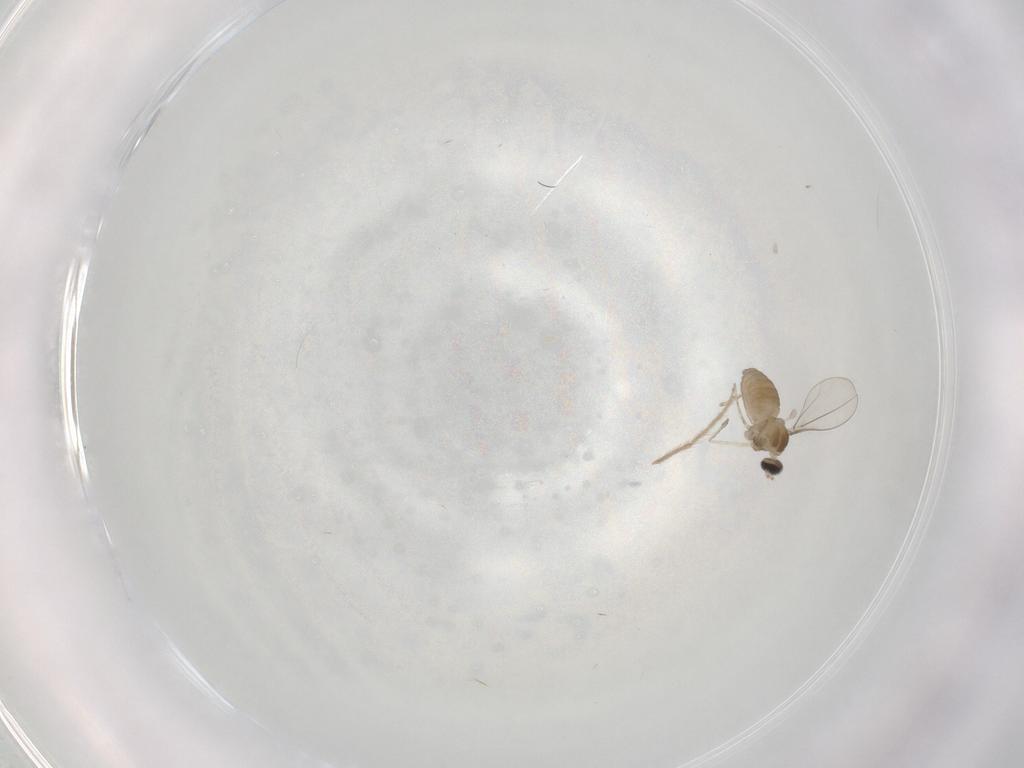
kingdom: Animalia
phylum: Arthropoda
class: Insecta
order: Diptera
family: Cecidomyiidae
